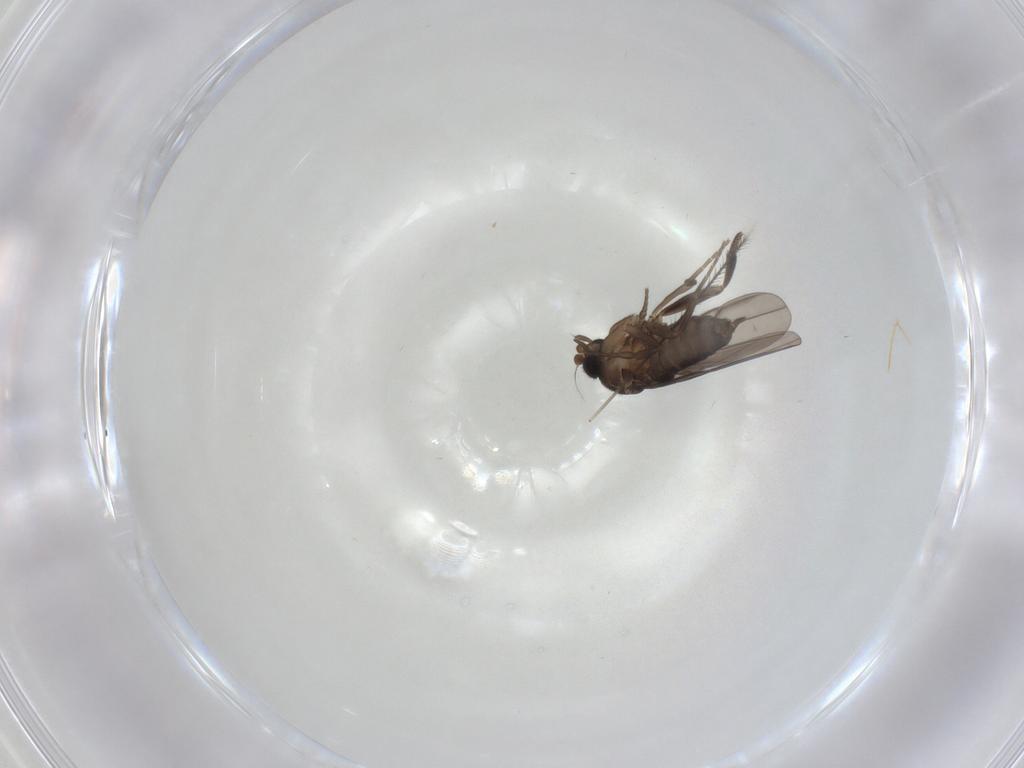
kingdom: Animalia
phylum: Arthropoda
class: Insecta
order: Diptera
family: Phoridae
